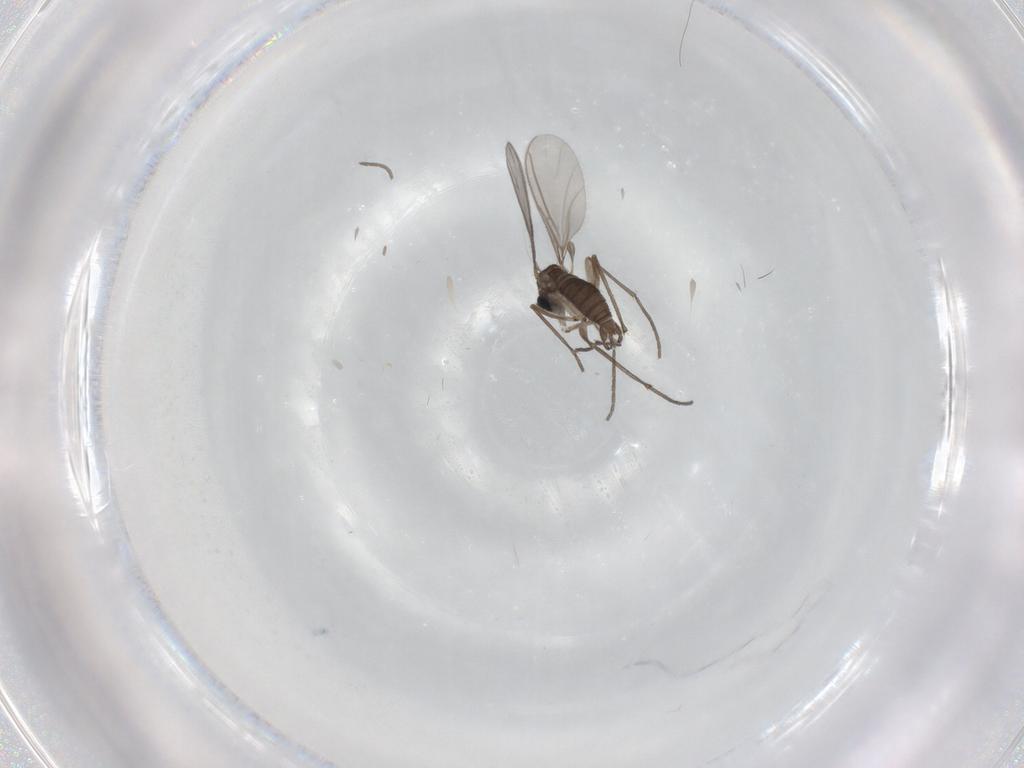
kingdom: Animalia
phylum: Arthropoda
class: Insecta
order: Diptera
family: Sciaridae
